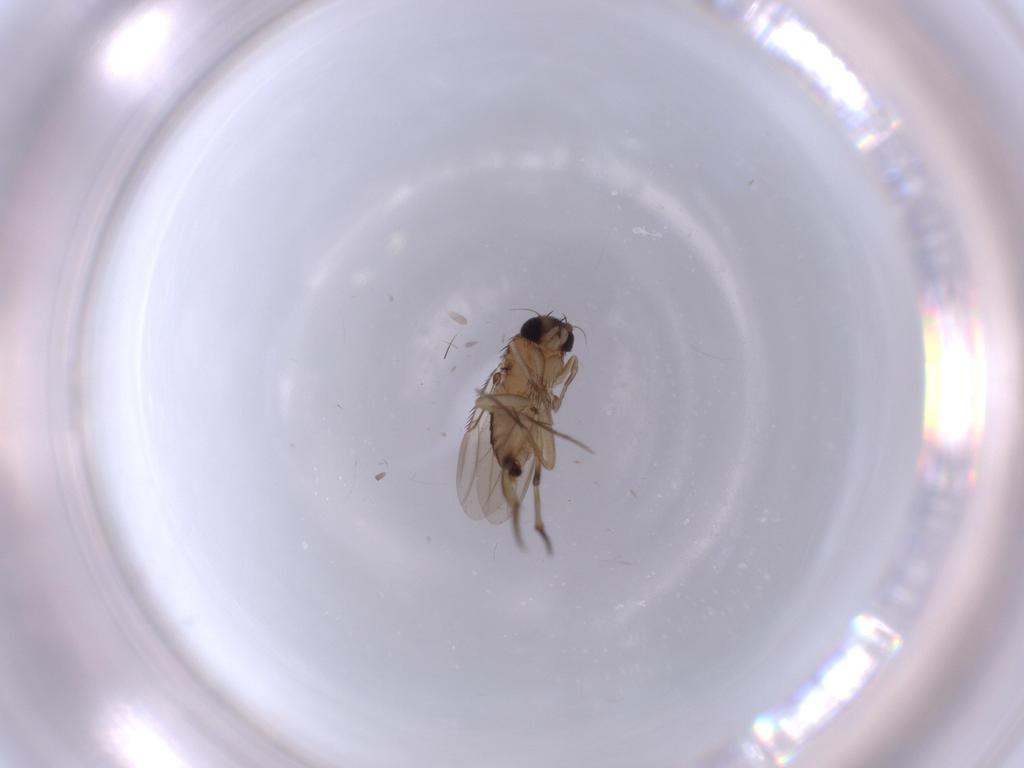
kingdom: Animalia
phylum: Arthropoda
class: Insecta
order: Diptera
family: Phoridae
